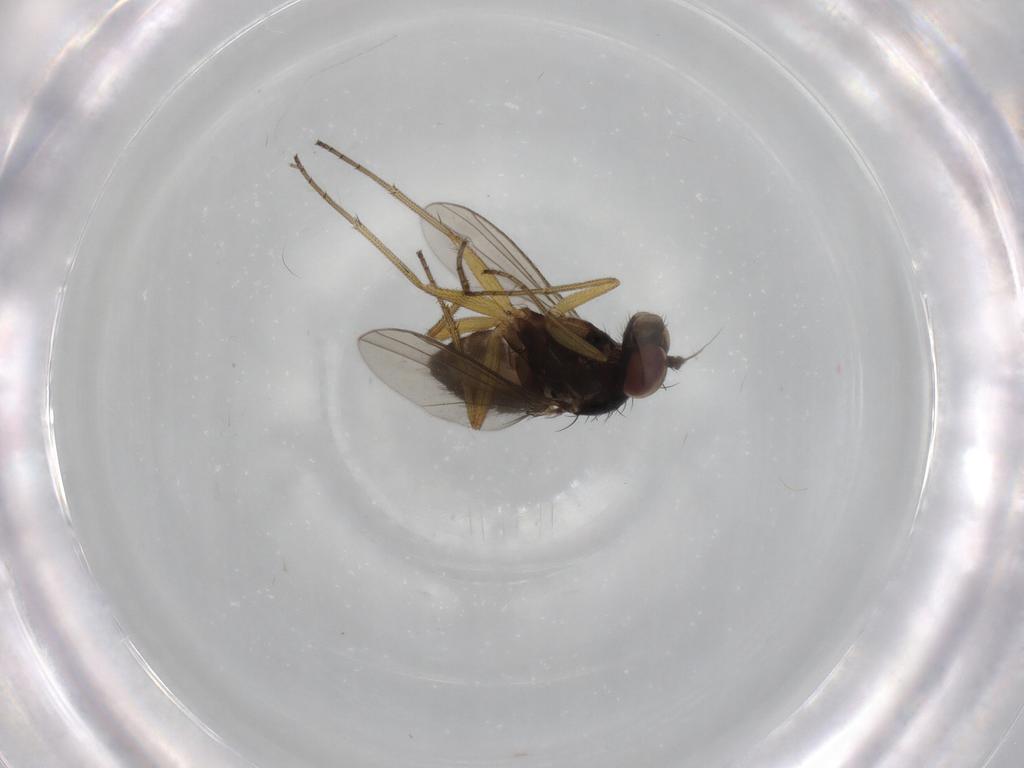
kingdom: Animalia
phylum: Arthropoda
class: Insecta
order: Diptera
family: Dolichopodidae
